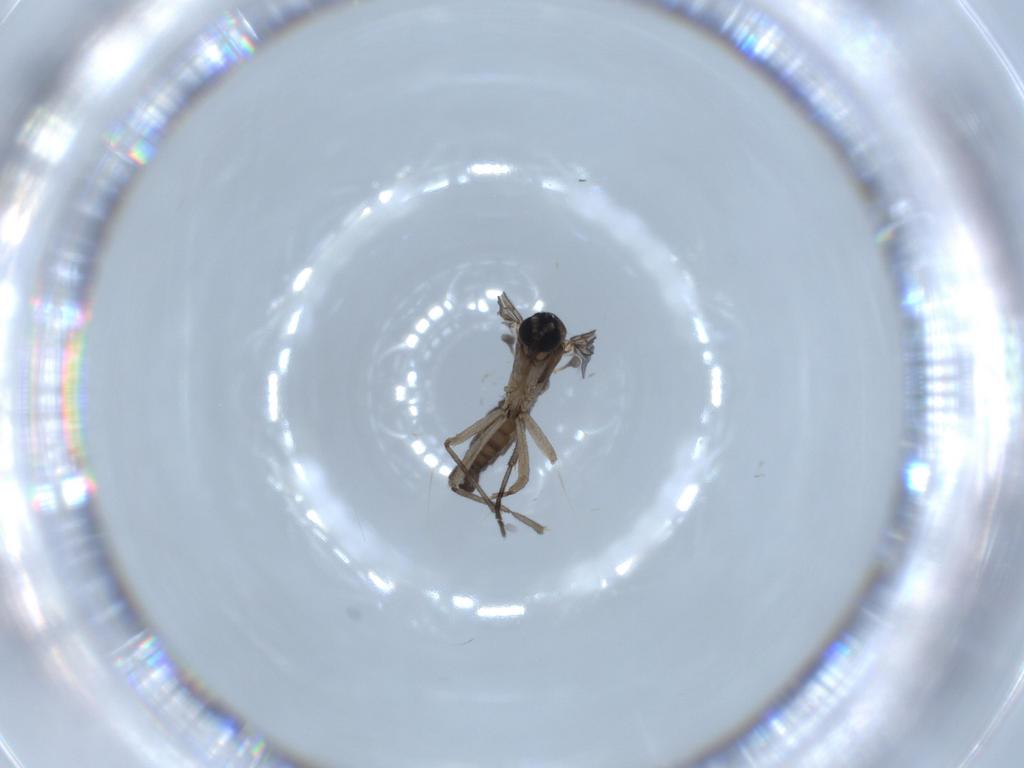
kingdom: Animalia
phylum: Arthropoda
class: Insecta
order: Diptera
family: Sciaridae
